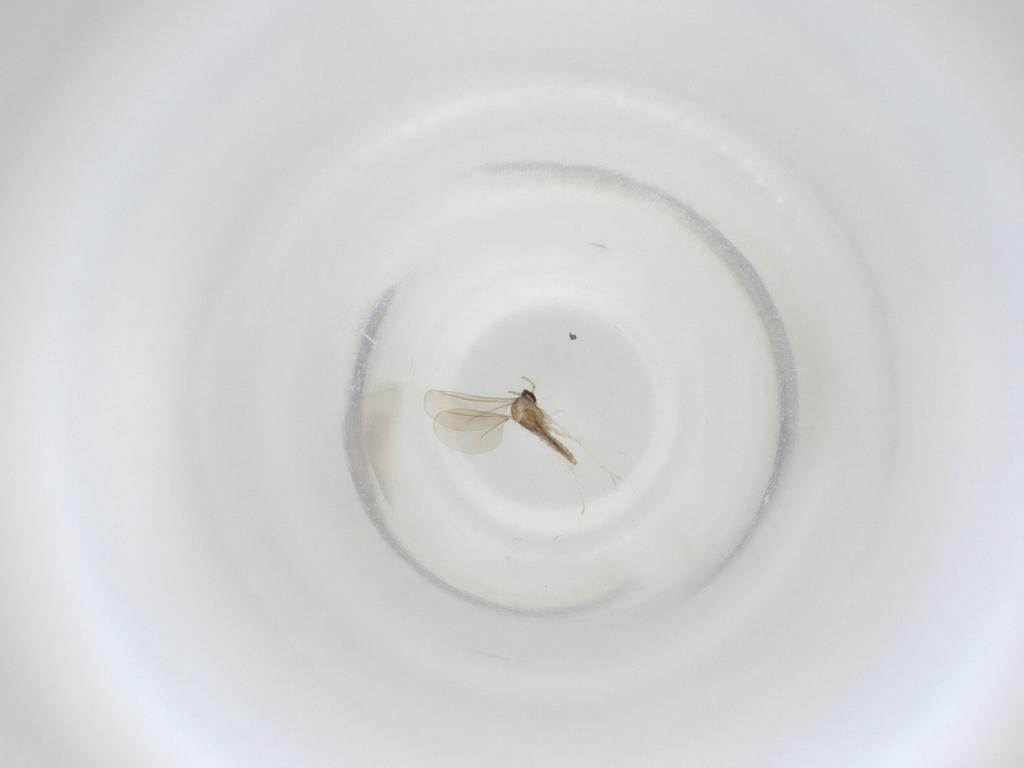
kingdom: Animalia
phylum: Arthropoda
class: Insecta
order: Diptera
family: Cecidomyiidae
